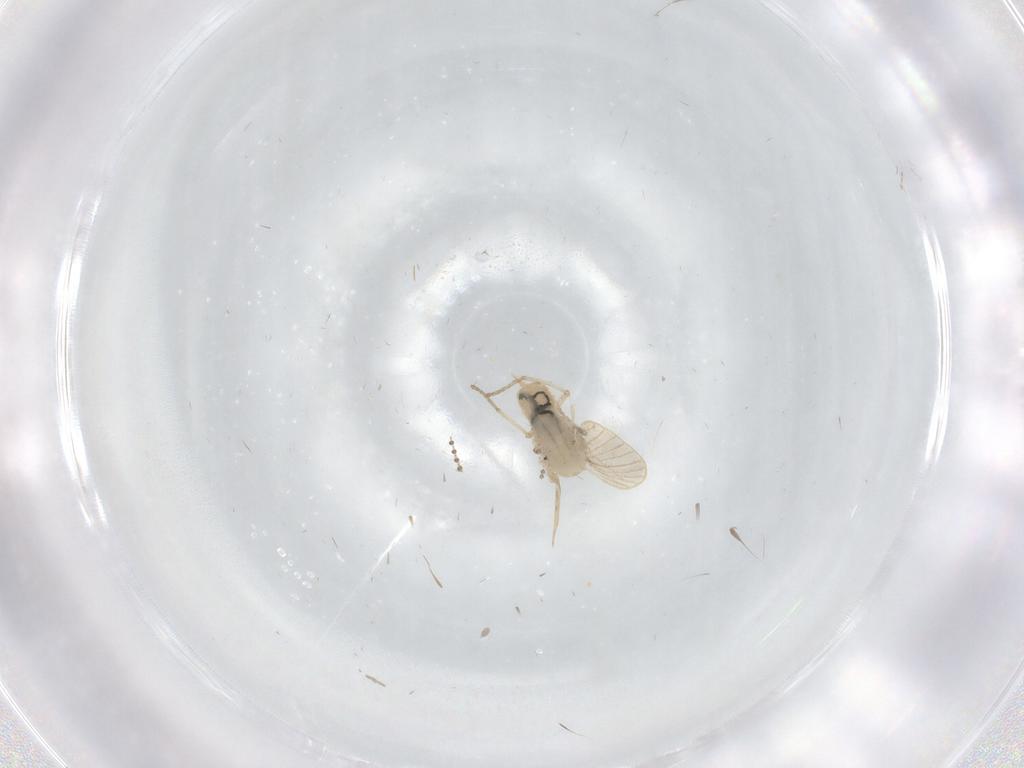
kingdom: Animalia
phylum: Arthropoda
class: Insecta
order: Diptera
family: Psychodidae
